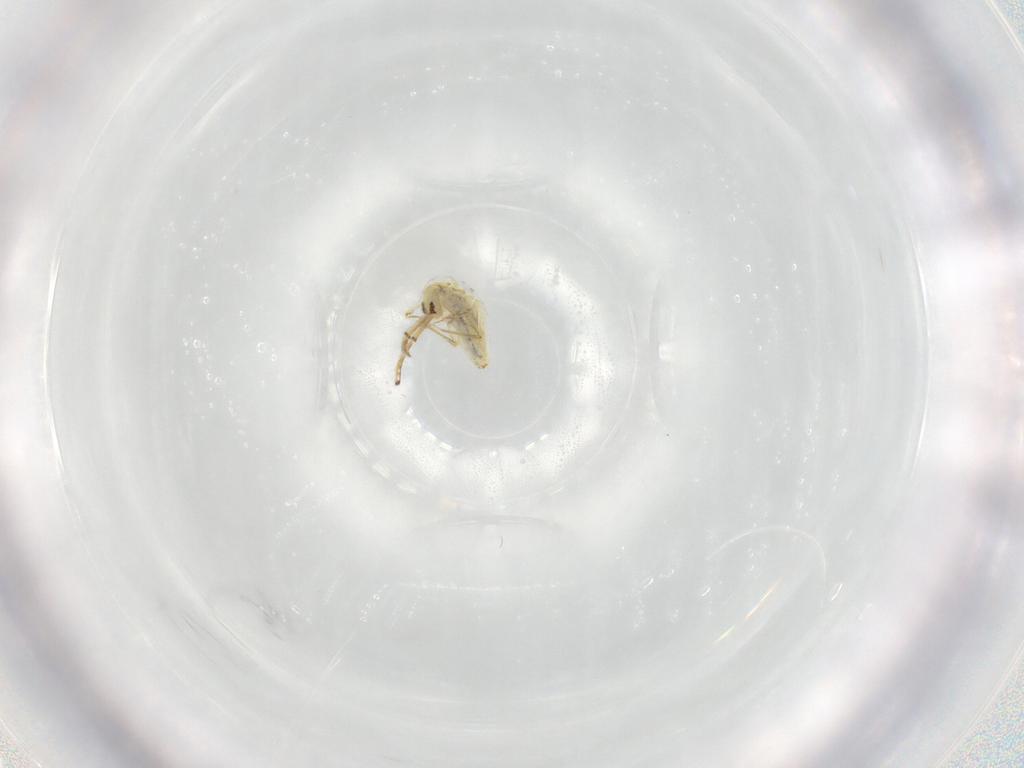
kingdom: Animalia
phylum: Arthropoda
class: Collembola
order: Entomobryomorpha
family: Paronellidae
